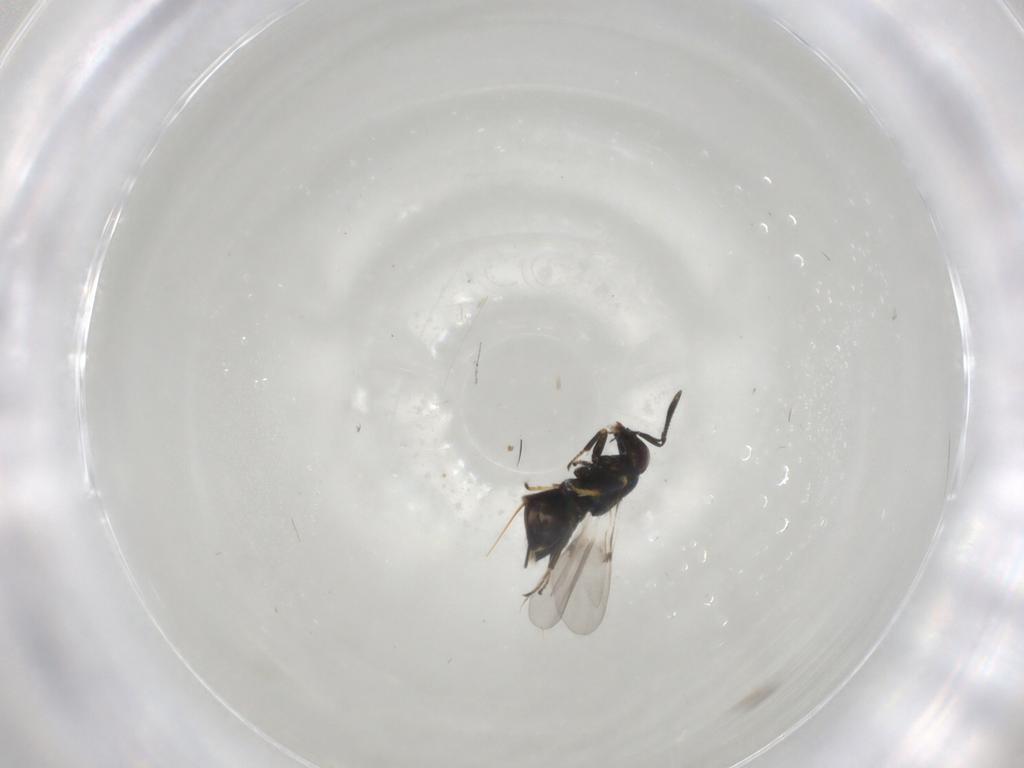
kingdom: Animalia
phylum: Arthropoda
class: Insecta
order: Hymenoptera
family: Encyrtidae
